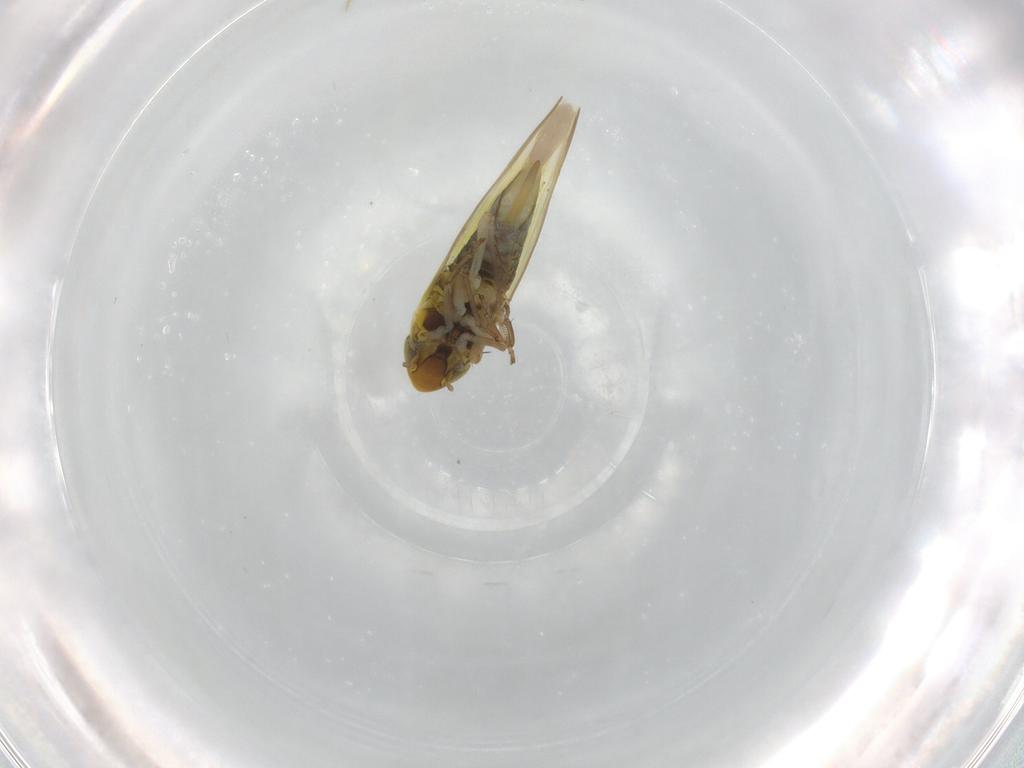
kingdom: Animalia
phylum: Arthropoda
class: Insecta
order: Hemiptera
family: Cicadellidae
